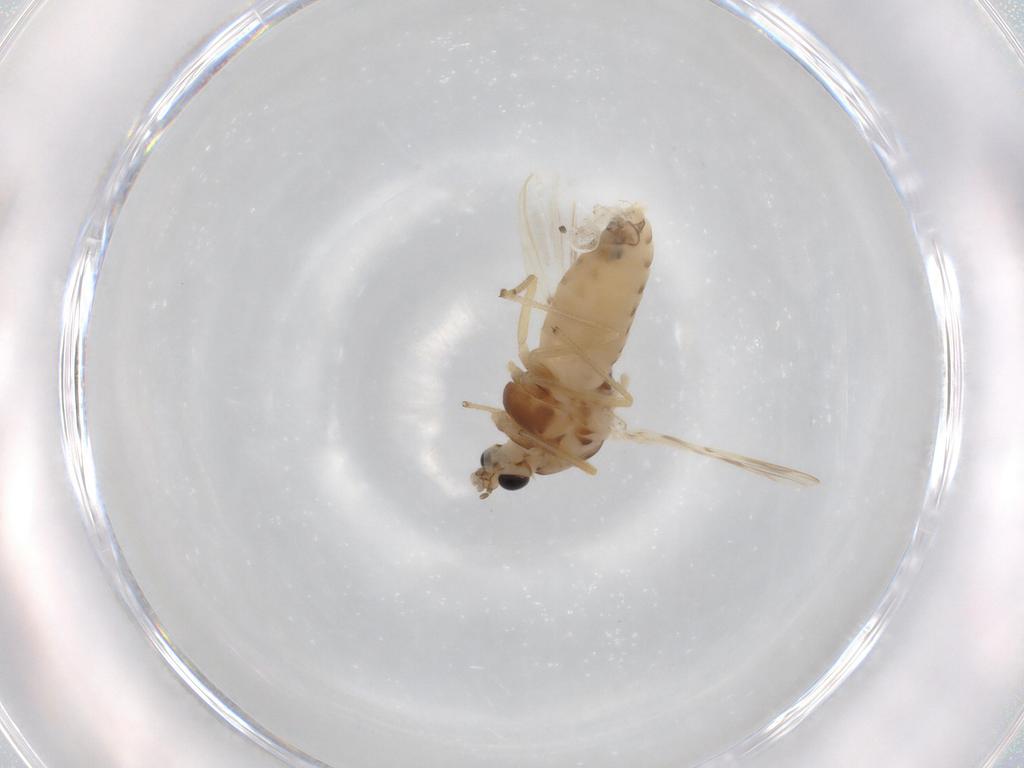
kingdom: Animalia
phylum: Arthropoda
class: Insecta
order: Diptera
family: Chironomidae
